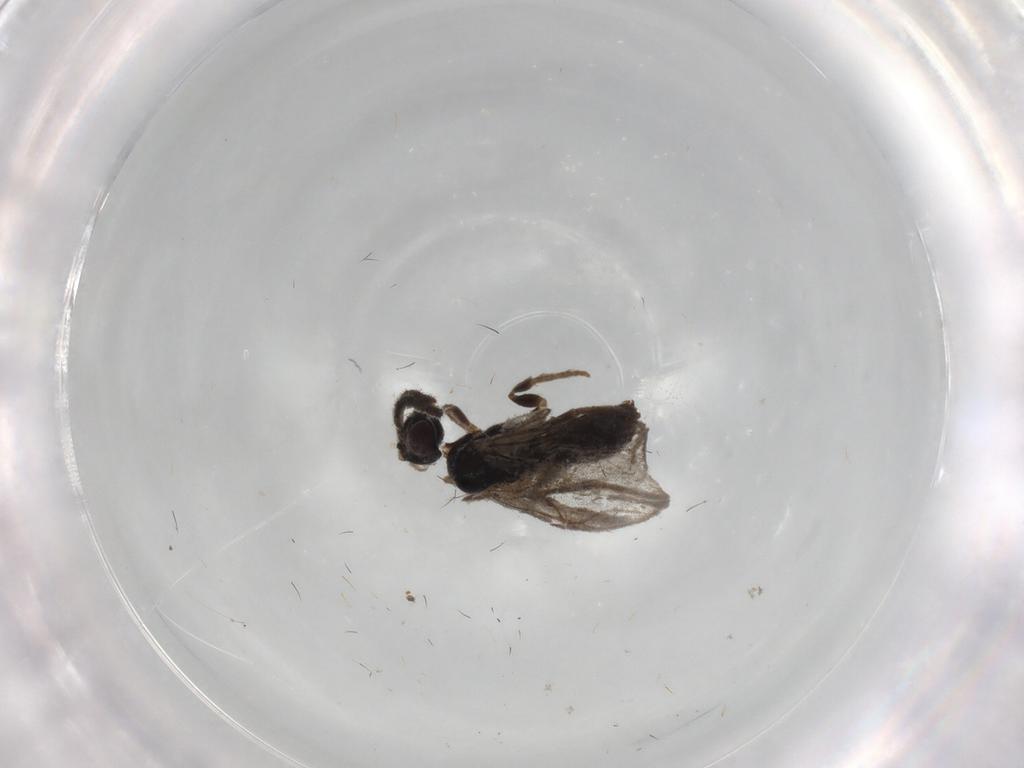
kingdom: Animalia
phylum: Arthropoda
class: Insecta
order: Hymenoptera
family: Dryinidae
